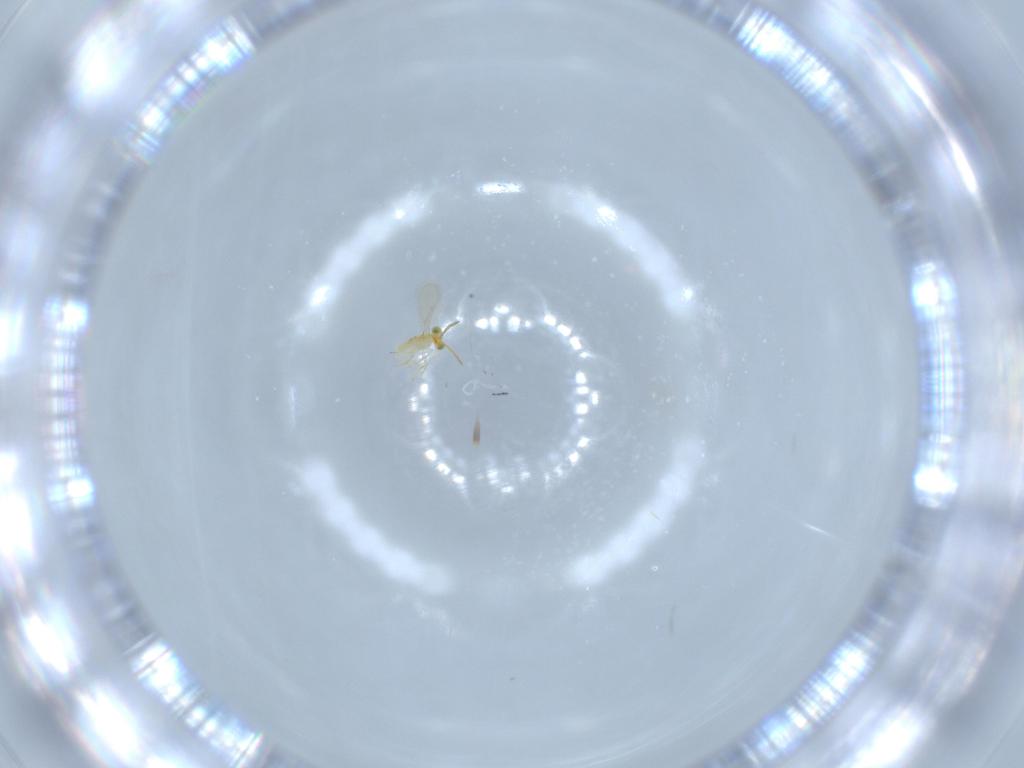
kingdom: Animalia
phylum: Arthropoda
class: Insecta
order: Hymenoptera
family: Aphelinidae
